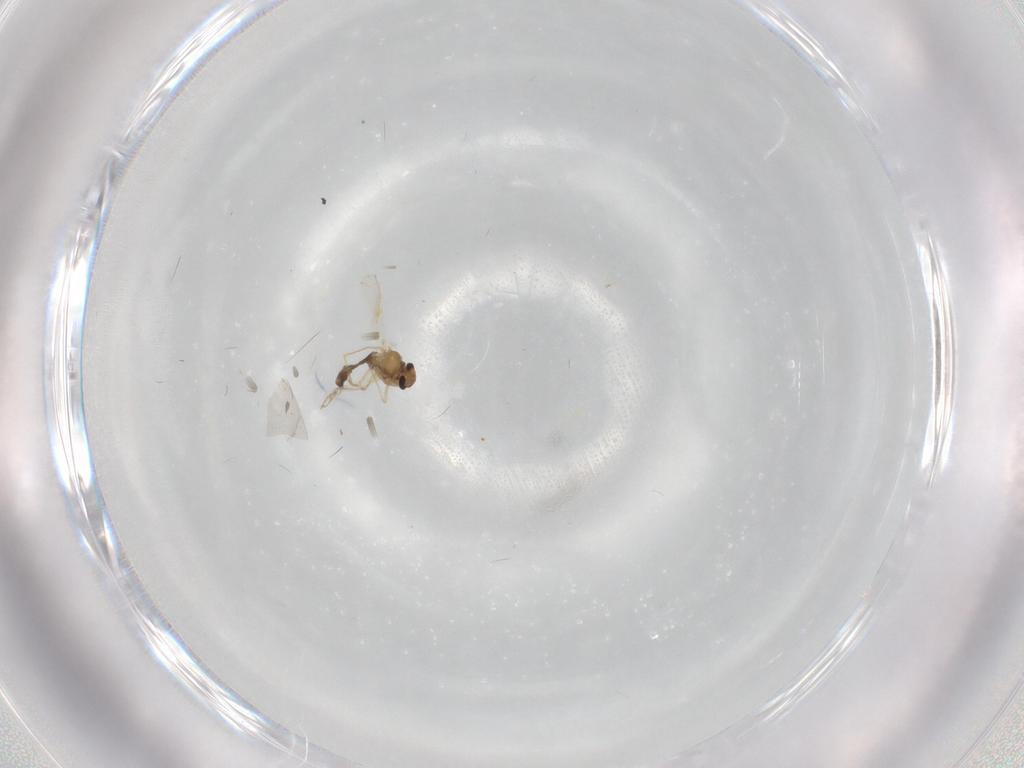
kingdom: Animalia
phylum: Arthropoda
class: Insecta
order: Diptera
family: Chironomidae
